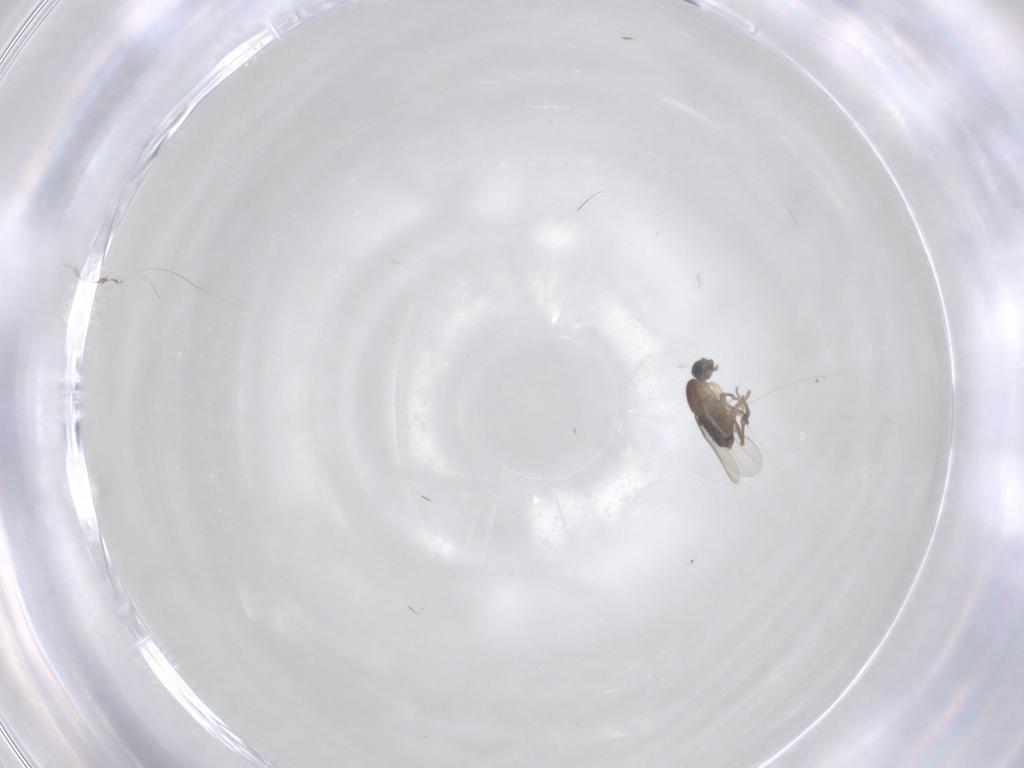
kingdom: Animalia
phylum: Arthropoda
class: Insecta
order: Diptera
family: Phoridae
